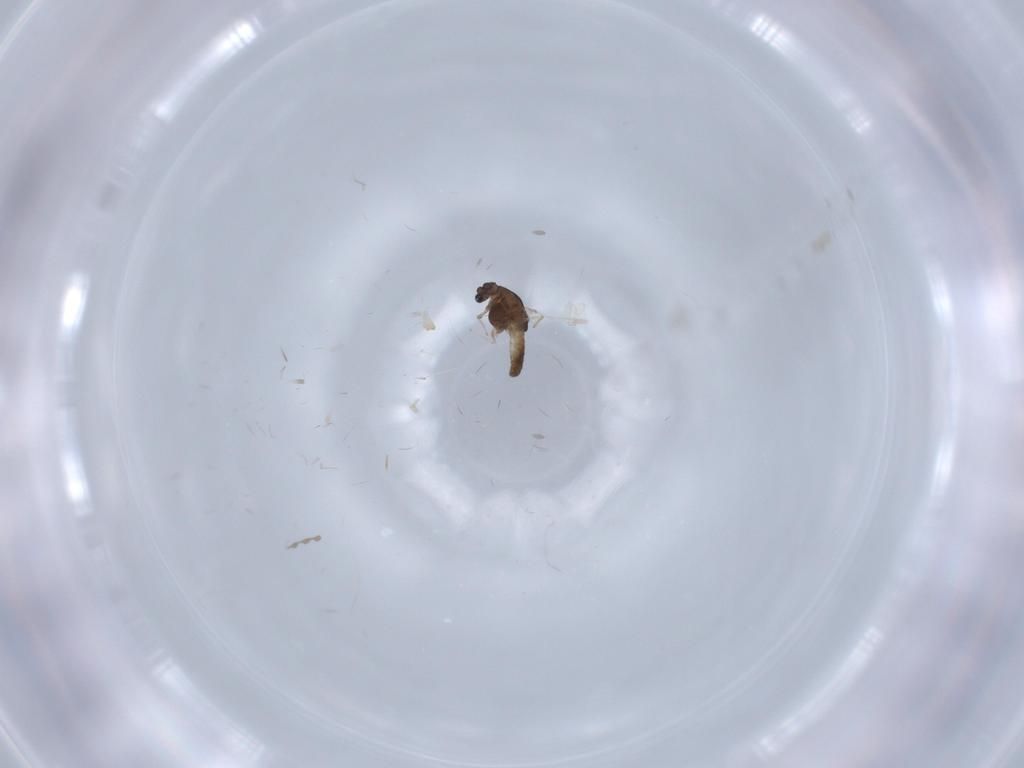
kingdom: Animalia
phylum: Arthropoda
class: Insecta
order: Diptera
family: Chironomidae
